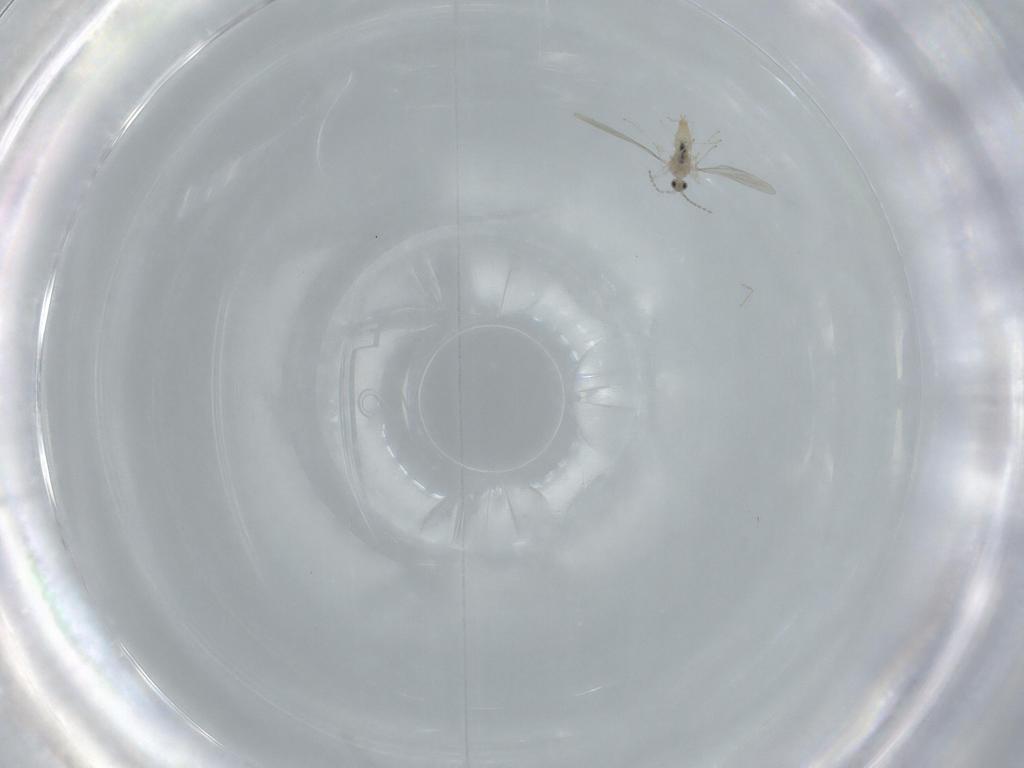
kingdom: Animalia
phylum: Arthropoda
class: Insecta
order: Diptera
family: Cecidomyiidae
